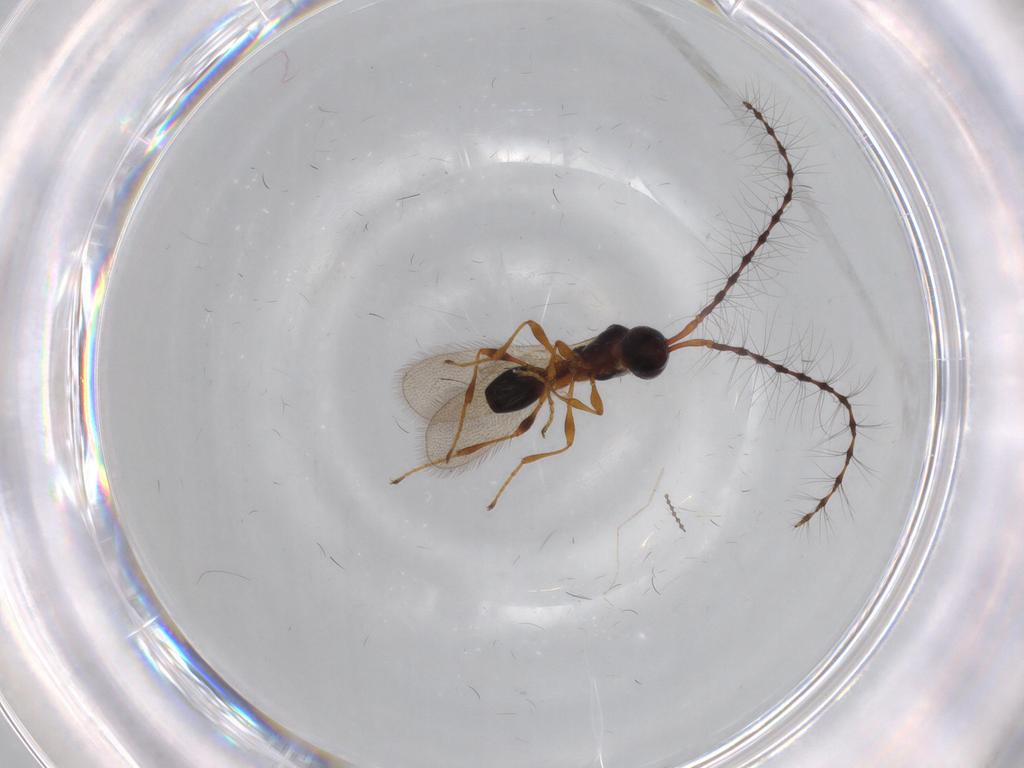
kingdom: Animalia
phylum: Arthropoda
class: Insecta
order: Hymenoptera
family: Diapriidae
